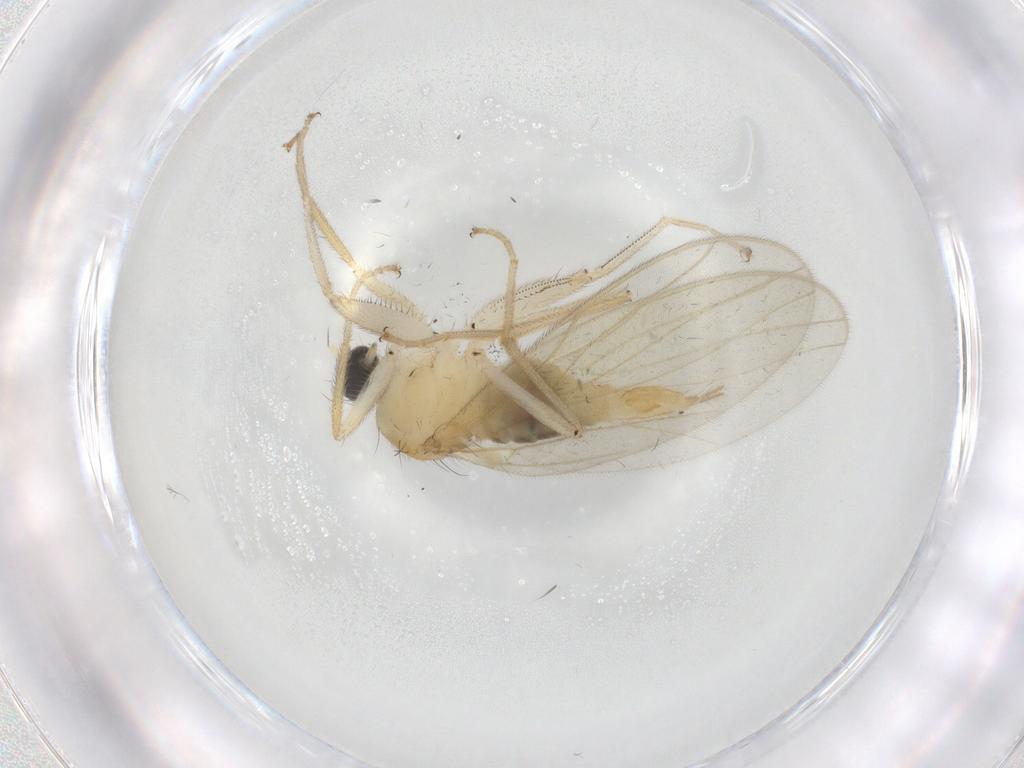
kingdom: Animalia
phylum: Arthropoda
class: Insecta
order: Diptera
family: Hybotidae
